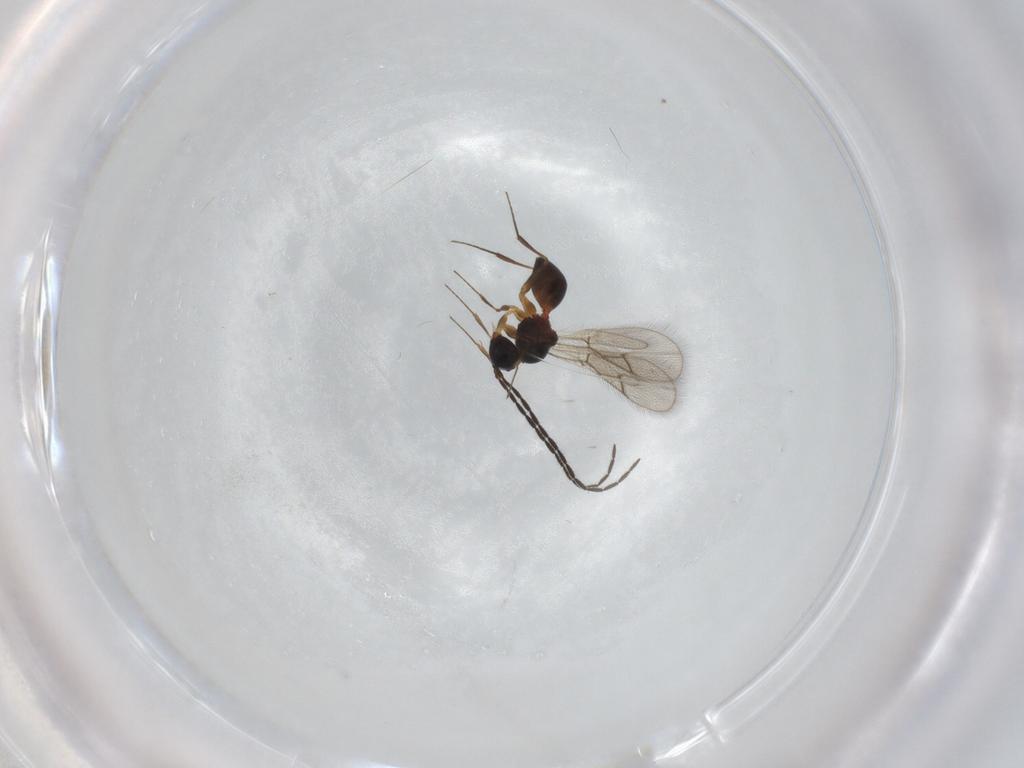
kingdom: Animalia
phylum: Arthropoda
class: Insecta
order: Hymenoptera
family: Figitidae
